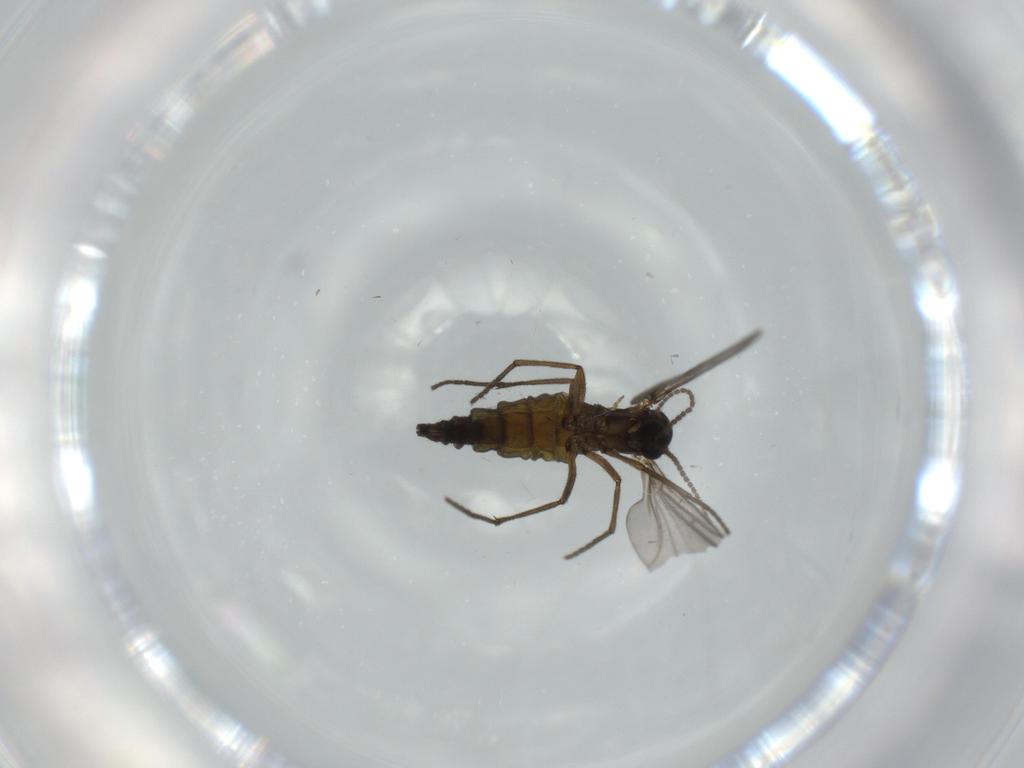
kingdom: Animalia
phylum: Arthropoda
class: Insecta
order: Diptera
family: Sciaridae
